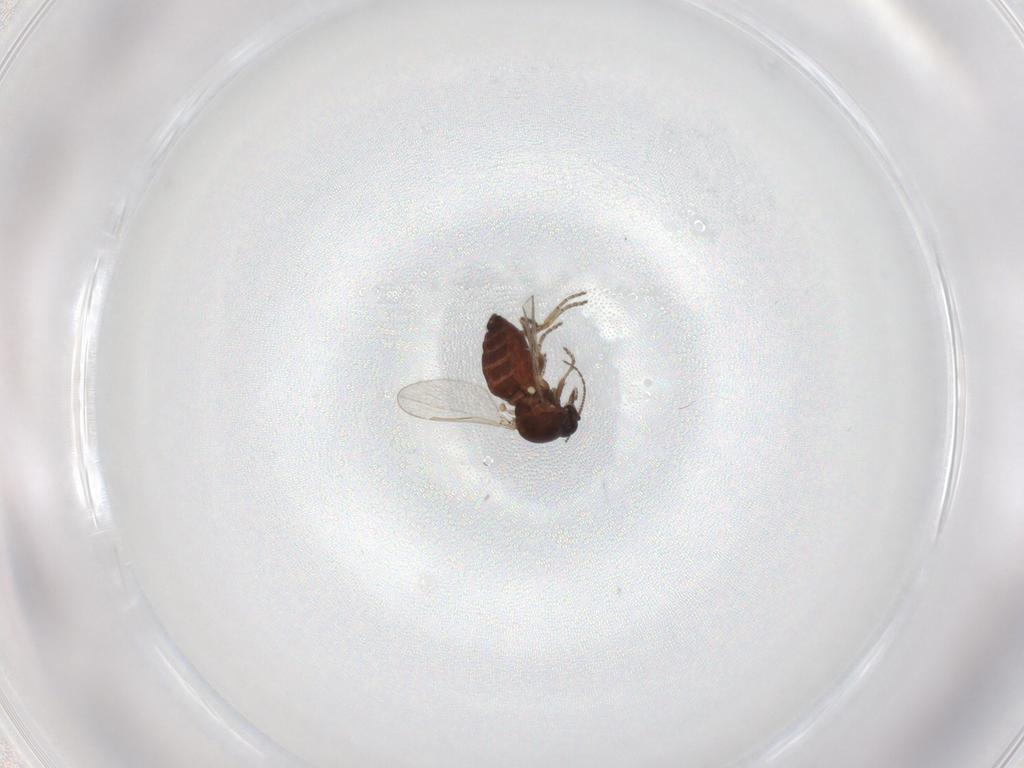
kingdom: Animalia
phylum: Arthropoda
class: Insecta
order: Diptera
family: Ceratopogonidae
